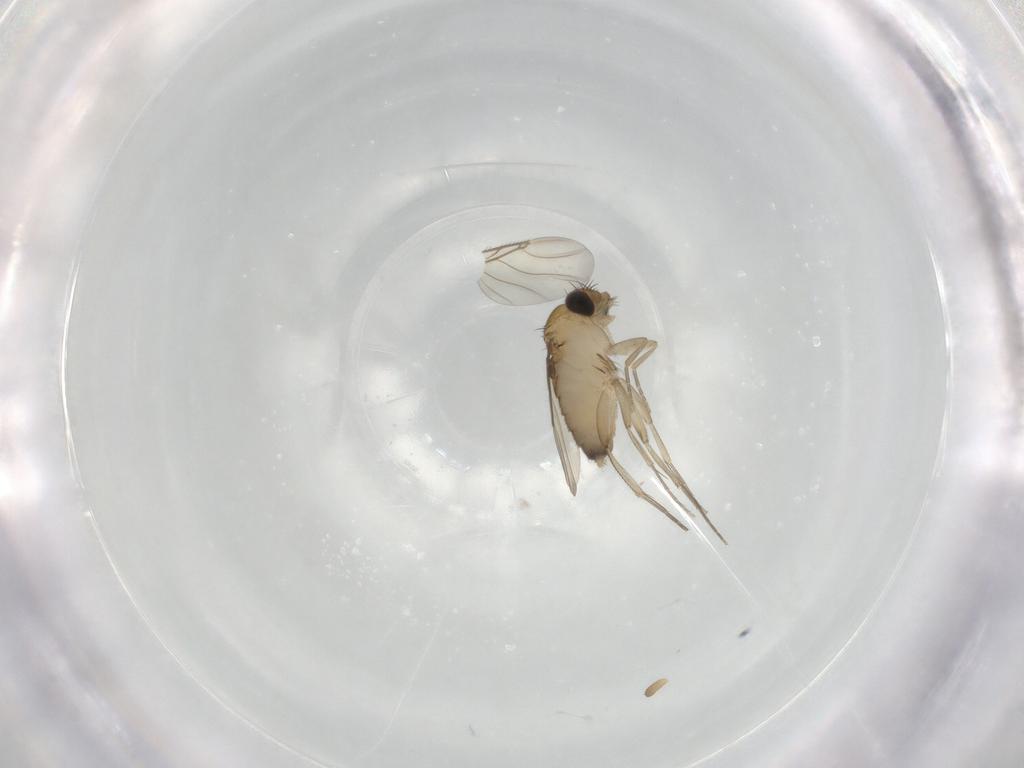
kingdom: Animalia
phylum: Arthropoda
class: Insecta
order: Diptera
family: Phoridae
